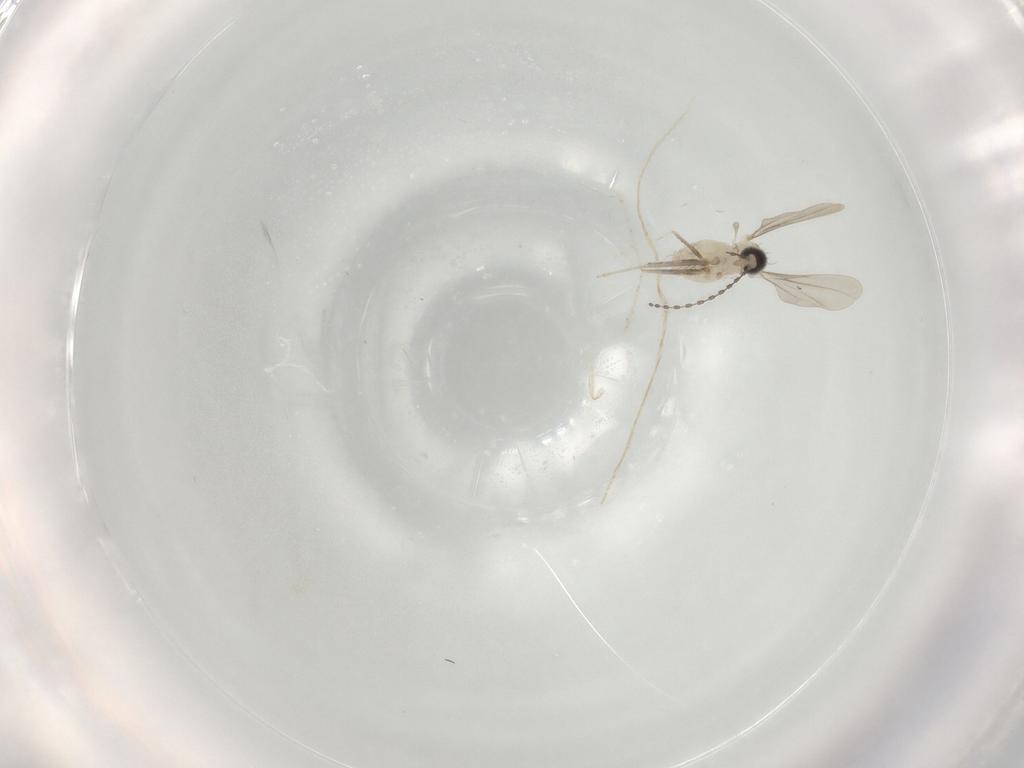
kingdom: Animalia
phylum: Arthropoda
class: Insecta
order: Diptera
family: Cecidomyiidae
